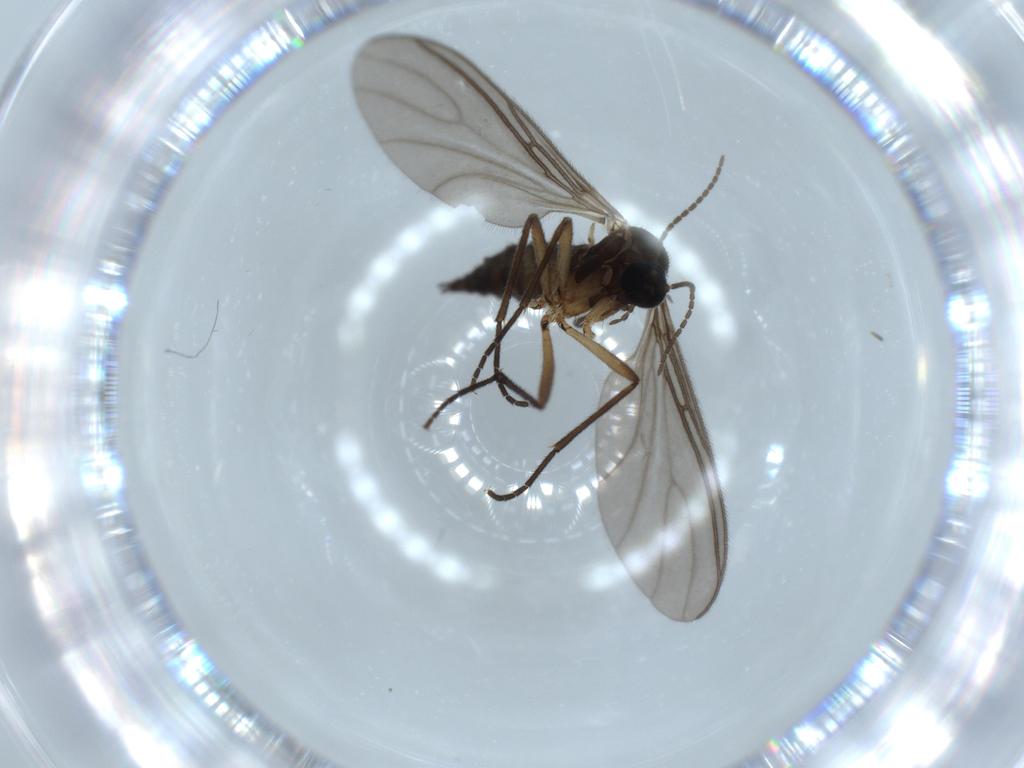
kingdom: Animalia
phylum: Arthropoda
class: Insecta
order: Diptera
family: Sciaridae
